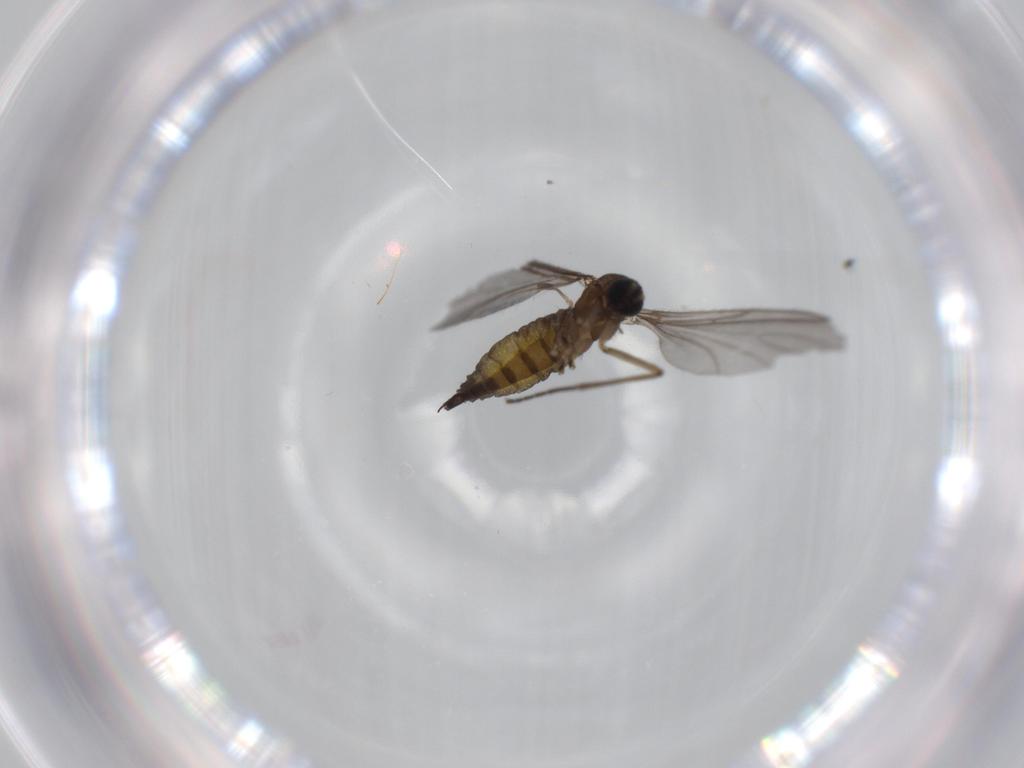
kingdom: Animalia
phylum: Arthropoda
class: Insecta
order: Diptera
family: Sciaridae
